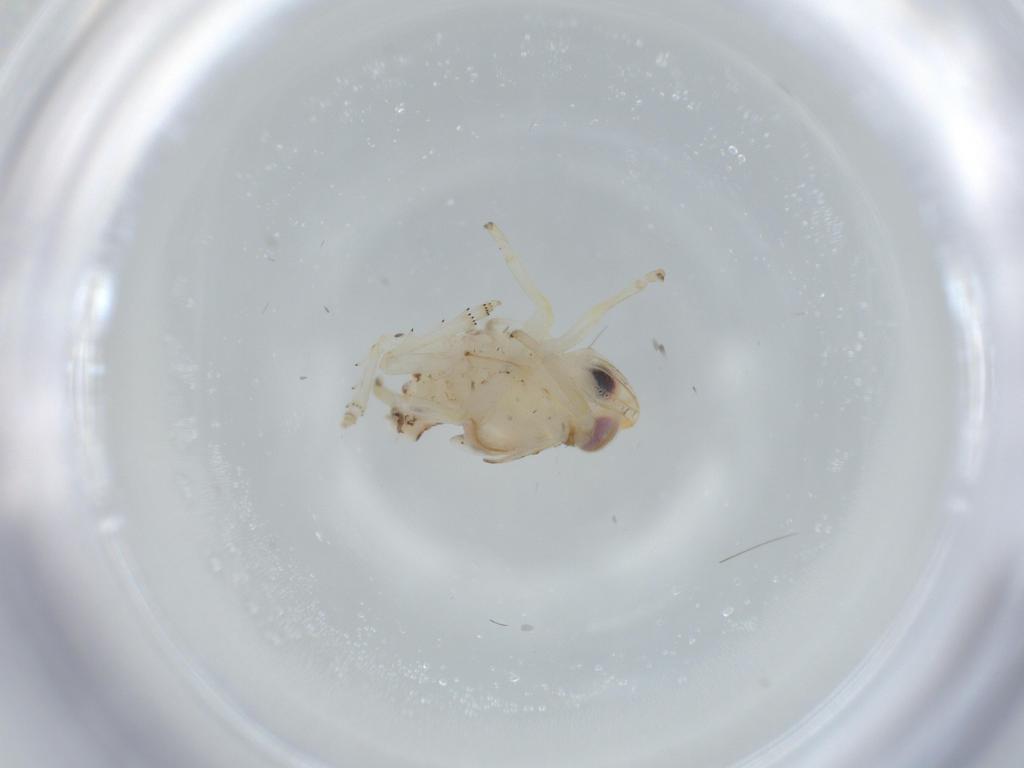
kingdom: Animalia
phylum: Arthropoda
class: Insecta
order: Hemiptera
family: Nogodinidae
